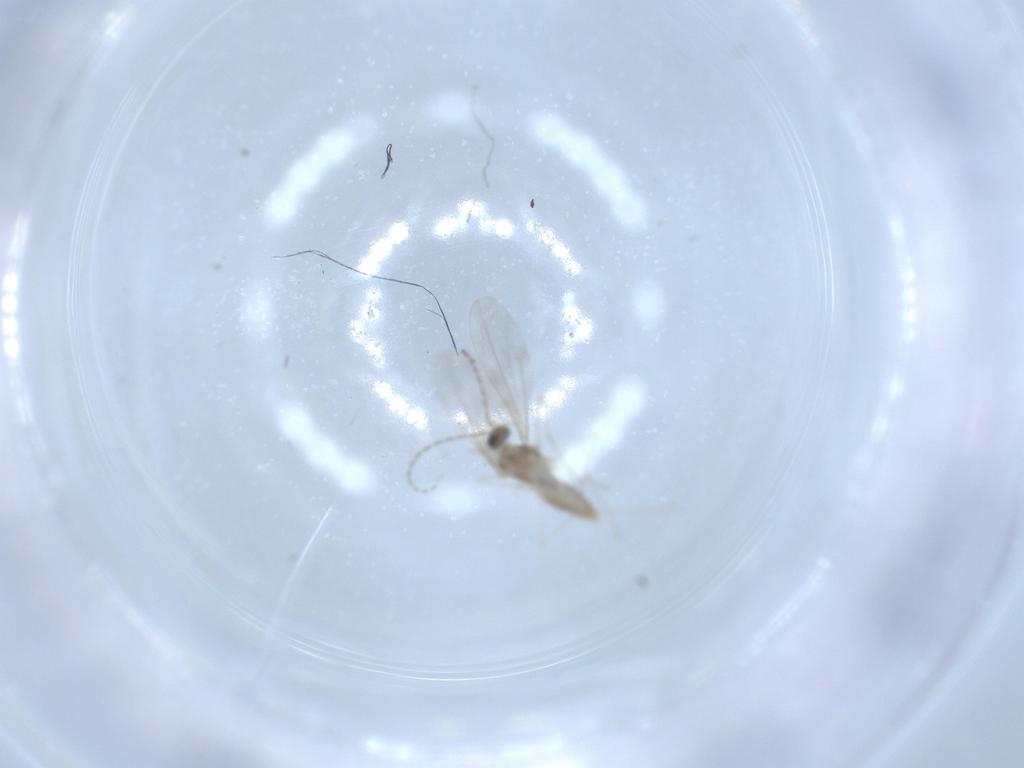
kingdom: Animalia
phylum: Arthropoda
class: Insecta
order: Diptera
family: Cecidomyiidae
